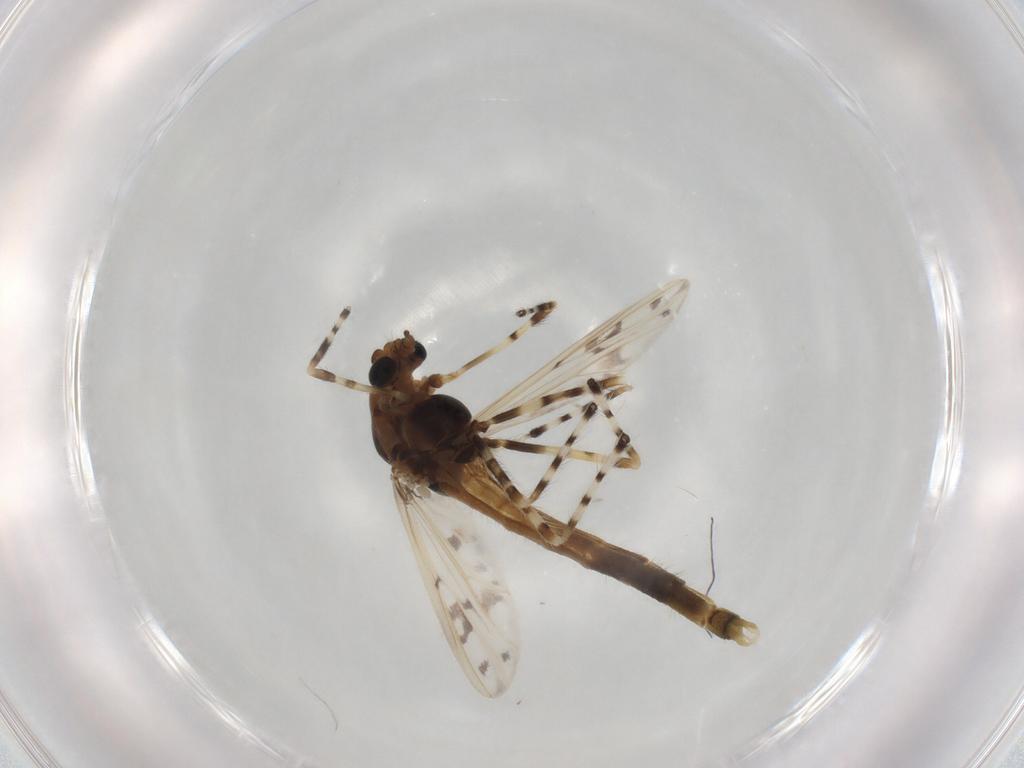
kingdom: Animalia
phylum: Arthropoda
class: Insecta
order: Diptera
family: Chironomidae
